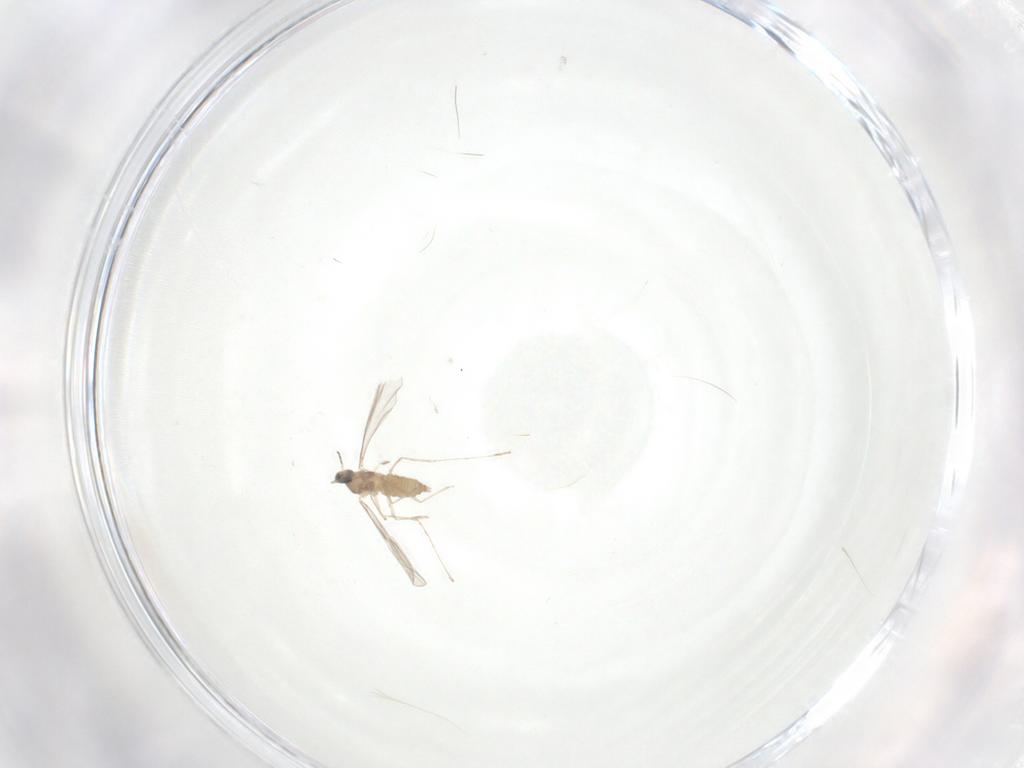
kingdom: Animalia
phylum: Arthropoda
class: Insecta
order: Diptera
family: Cecidomyiidae
